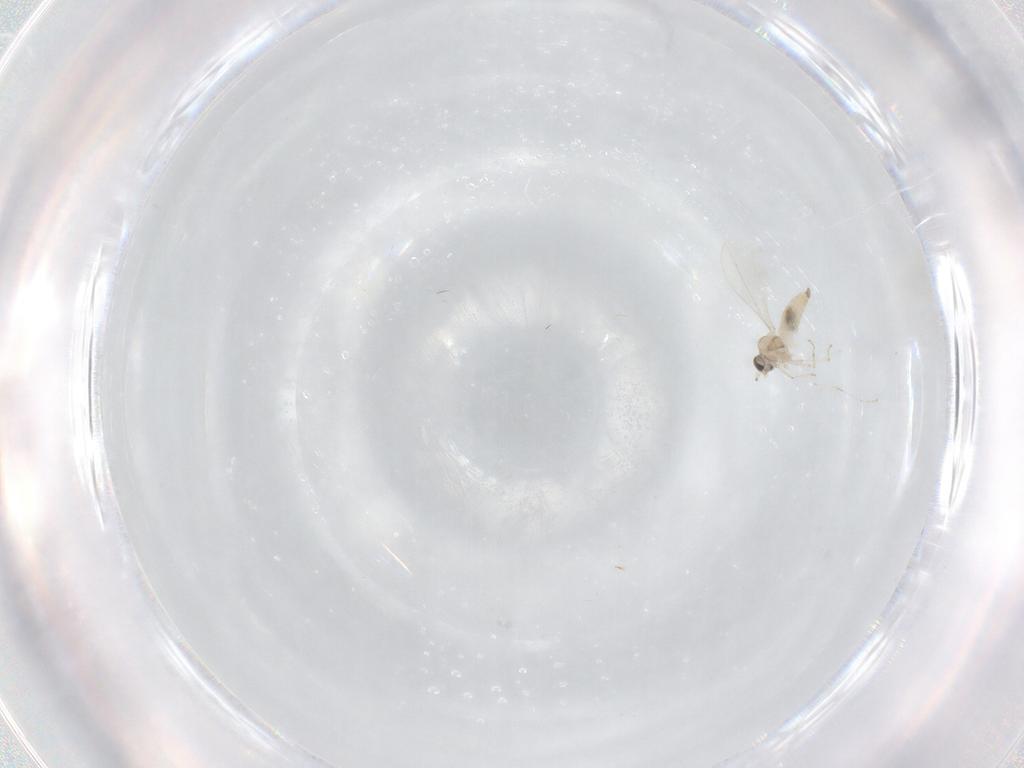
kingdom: Animalia
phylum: Arthropoda
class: Insecta
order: Diptera
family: Cecidomyiidae
